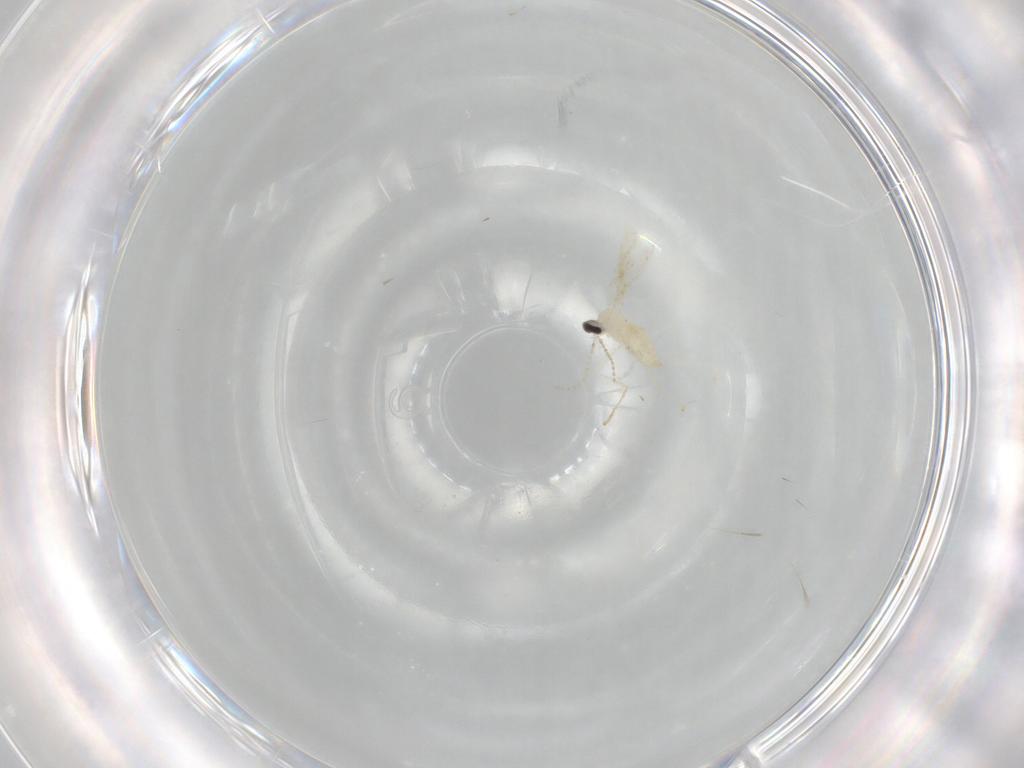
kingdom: Animalia
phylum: Arthropoda
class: Insecta
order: Diptera
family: Cecidomyiidae
